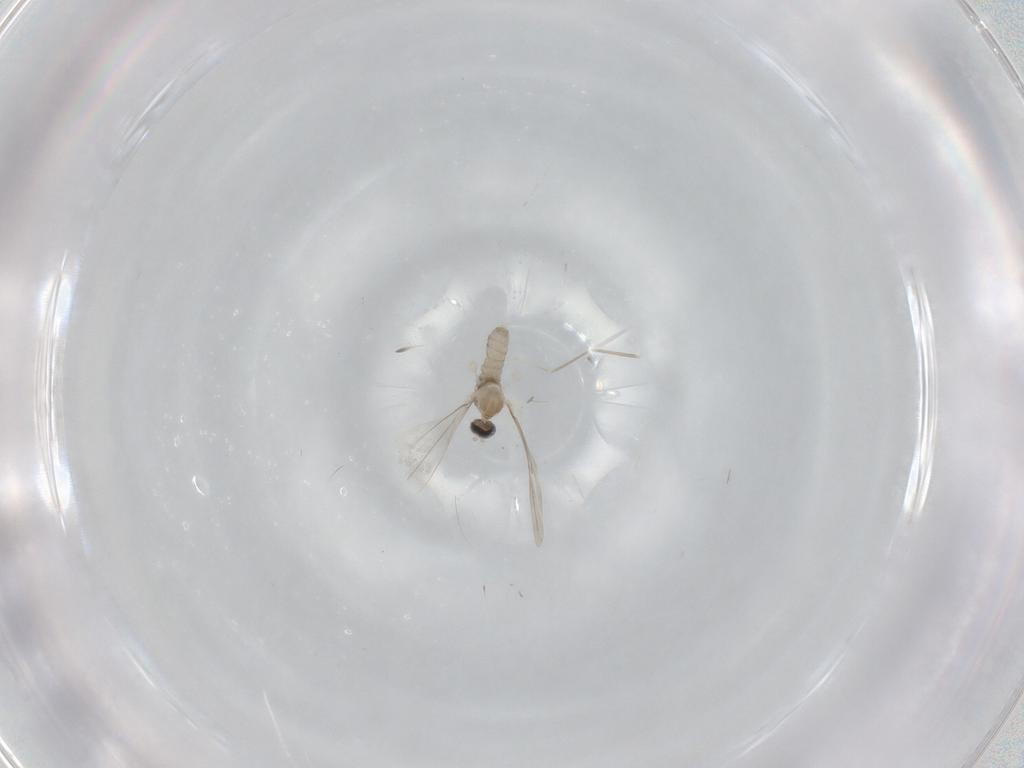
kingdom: Animalia
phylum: Arthropoda
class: Insecta
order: Diptera
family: Cecidomyiidae
